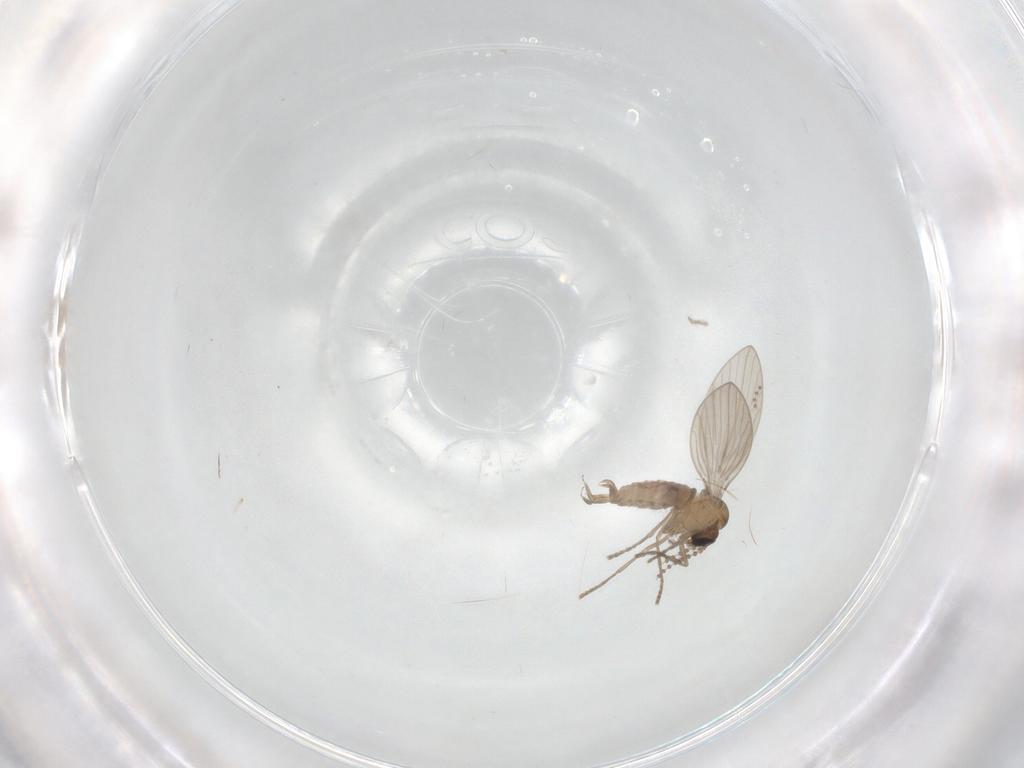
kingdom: Animalia
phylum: Arthropoda
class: Insecta
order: Diptera
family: Psychodidae
